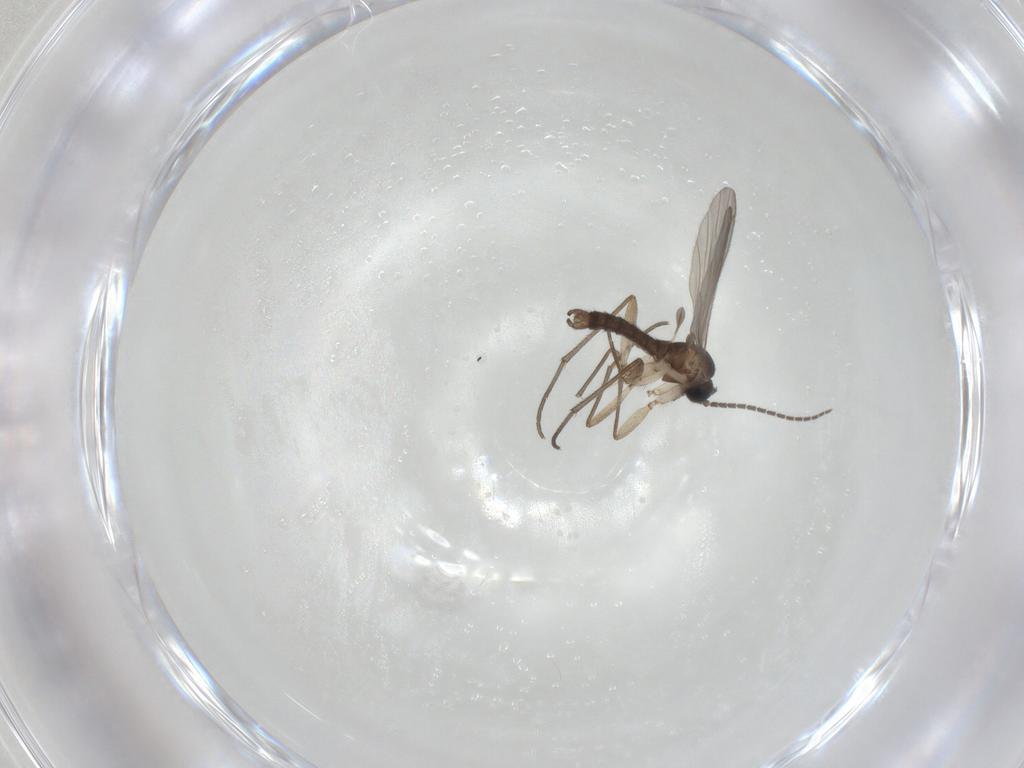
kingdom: Animalia
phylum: Arthropoda
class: Insecta
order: Diptera
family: Sciaridae
